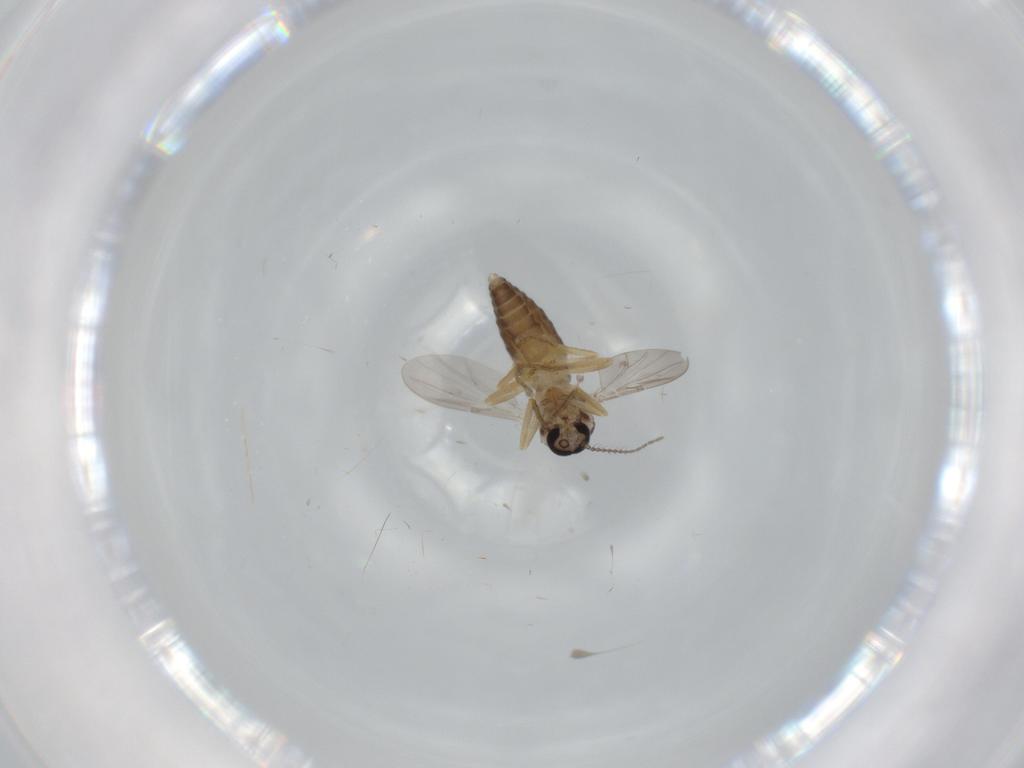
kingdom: Animalia
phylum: Arthropoda
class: Insecta
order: Diptera
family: Ceratopogonidae
